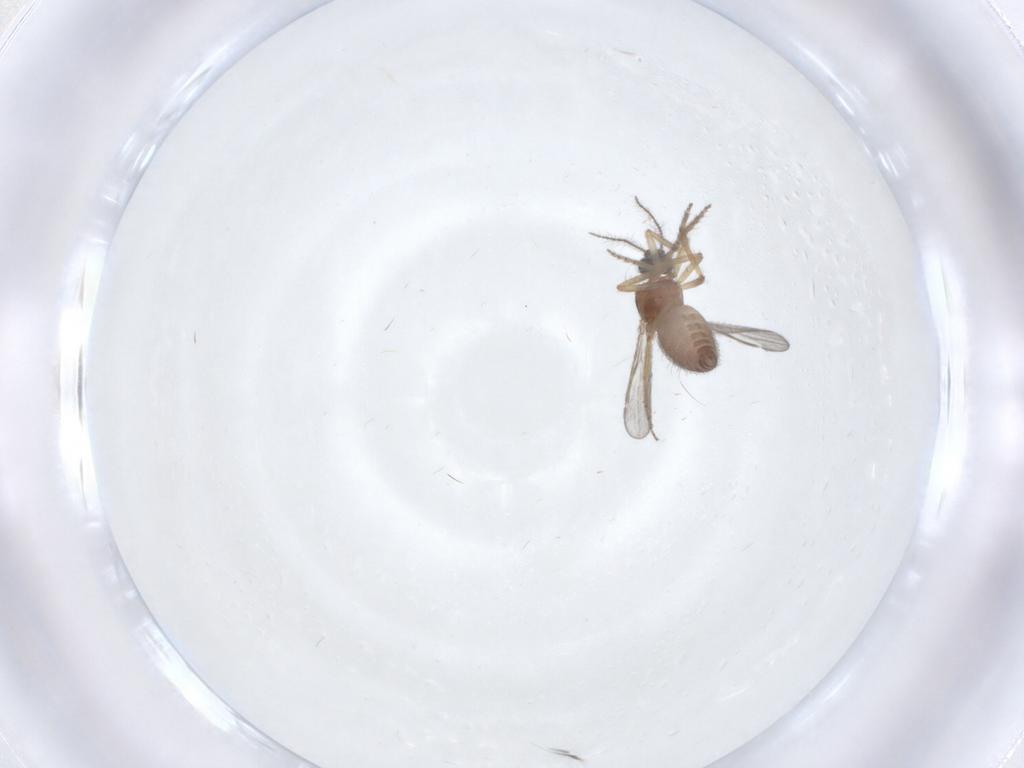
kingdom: Animalia
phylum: Arthropoda
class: Insecta
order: Diptera
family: Ceratopogonidae
